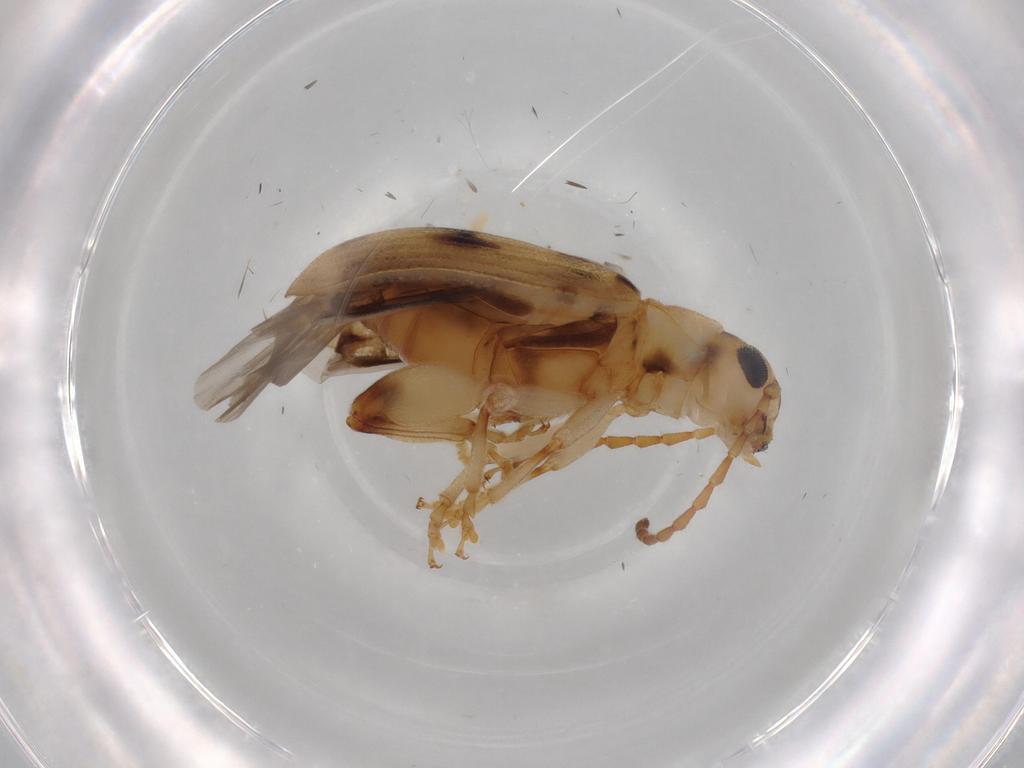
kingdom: Animalia
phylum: Arthropoda
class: Insecta
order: Coleoptera
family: Chrysomelidae
